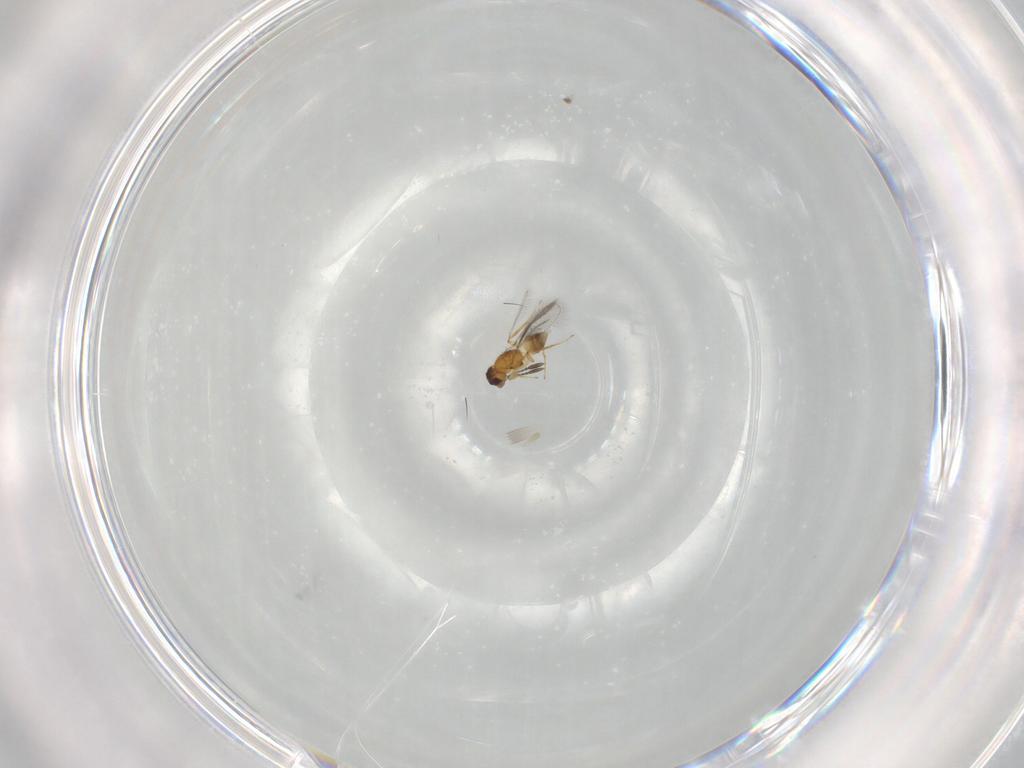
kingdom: Animalia
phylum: Arthropoda
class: Insecta
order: Hymenoptera
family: Mymaridae
